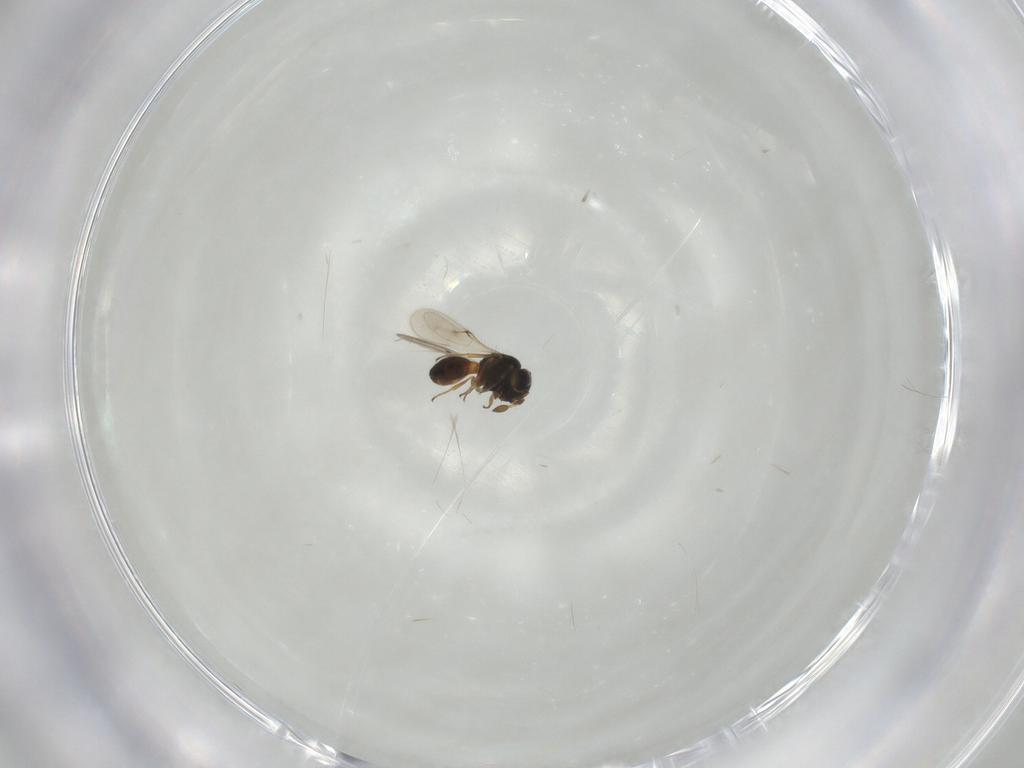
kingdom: Animalia
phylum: Arthropoda
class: Insecta
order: Hymenoptera
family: Scelionidae
